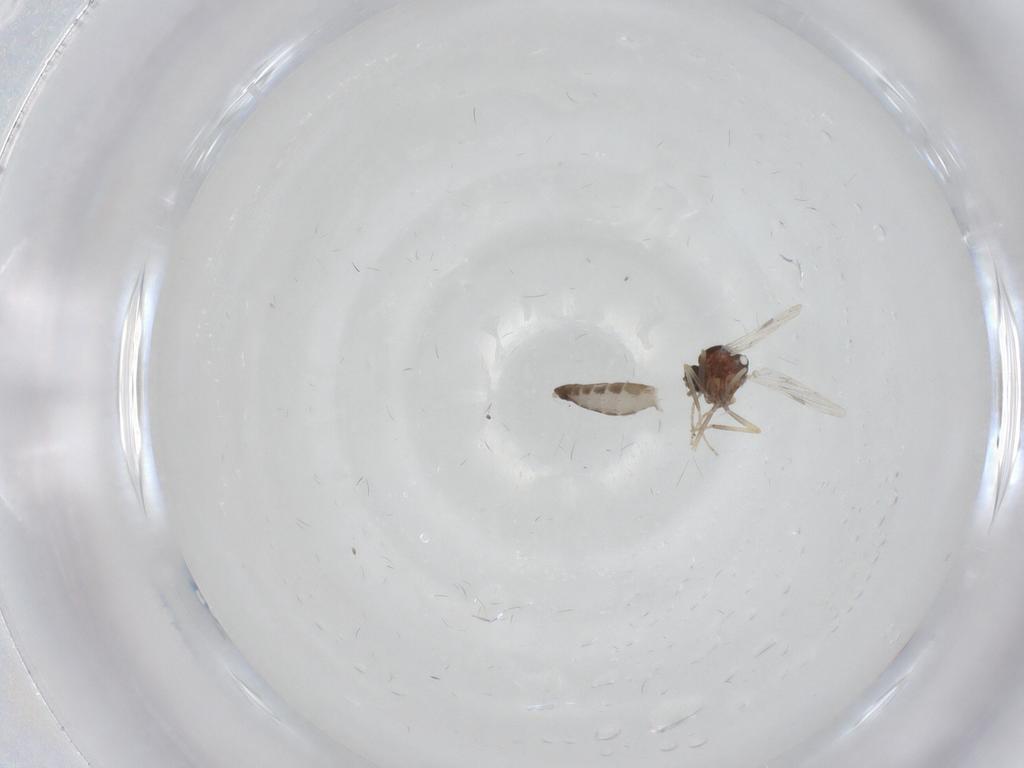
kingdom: Animalia
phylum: Arthropoda
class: Insecta
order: Diptera
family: Ceratopogonidae
